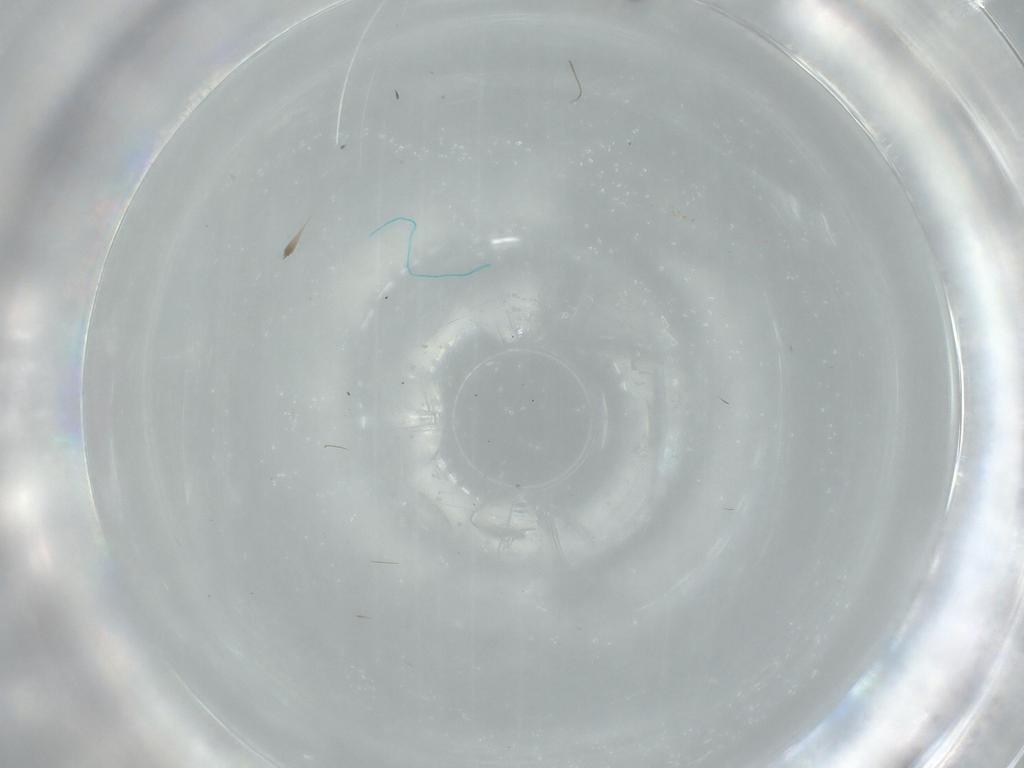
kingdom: Animalia
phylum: Arthropoda
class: Insecta
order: Hymenoptera
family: Mymaridae
